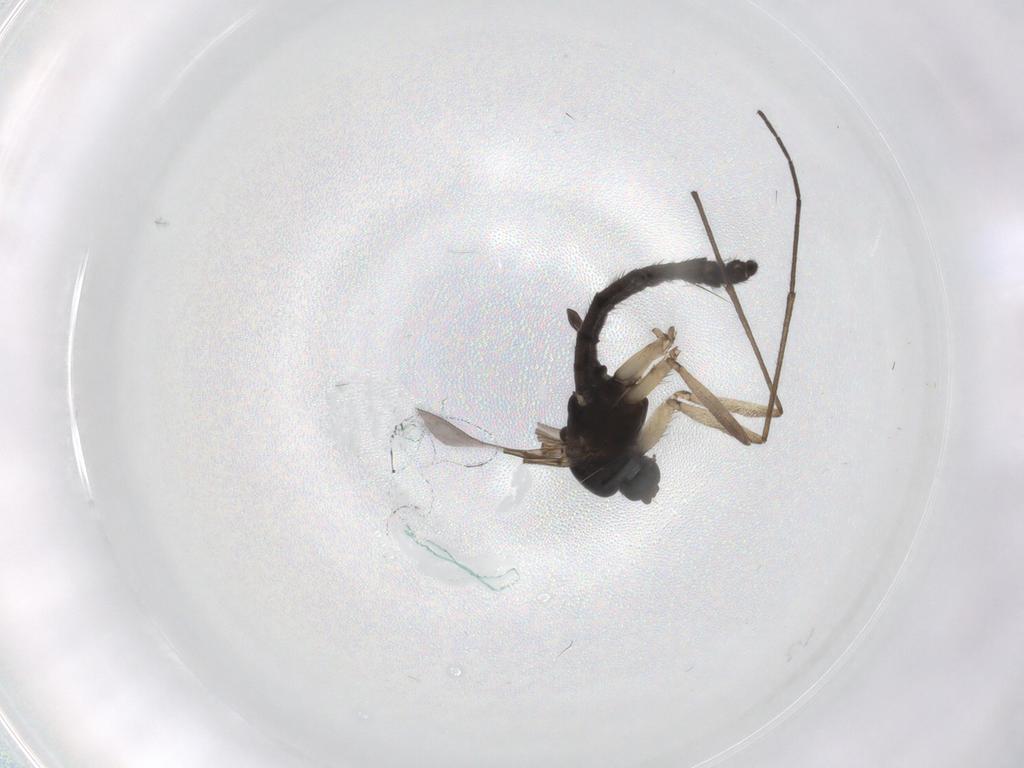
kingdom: Animalia
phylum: Arthropoda
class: Insecta
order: Diptera
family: Sciaridae
